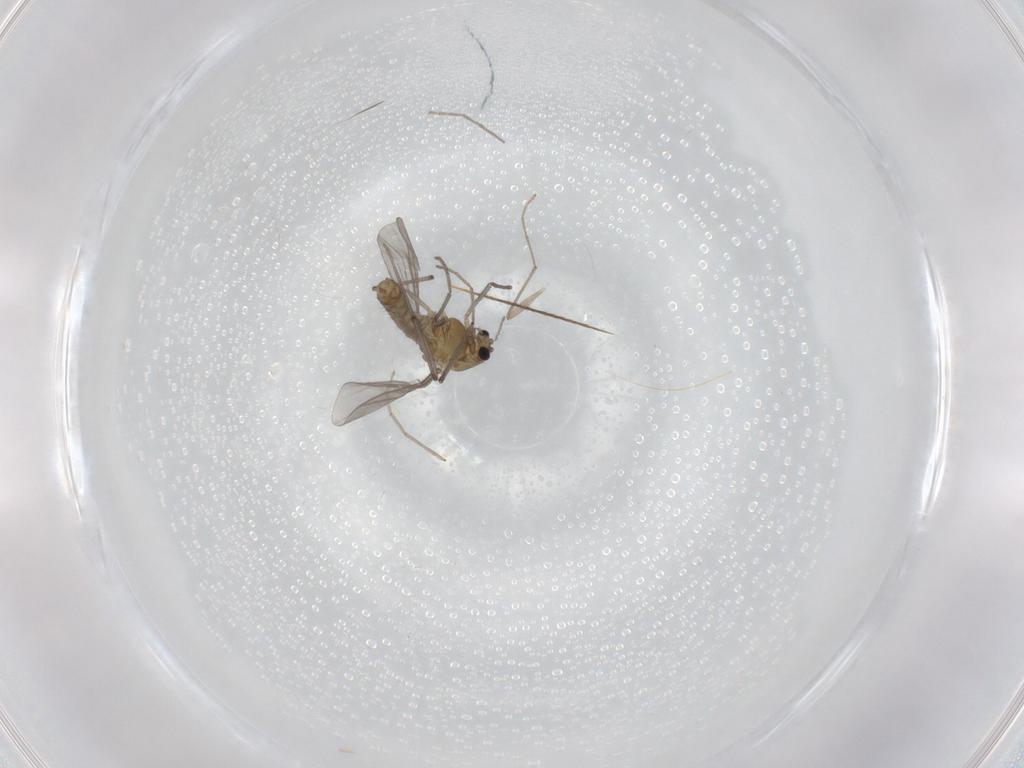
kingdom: Animalia
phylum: Arthropoda
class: Insecta
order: Diptera
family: Chironomidae
